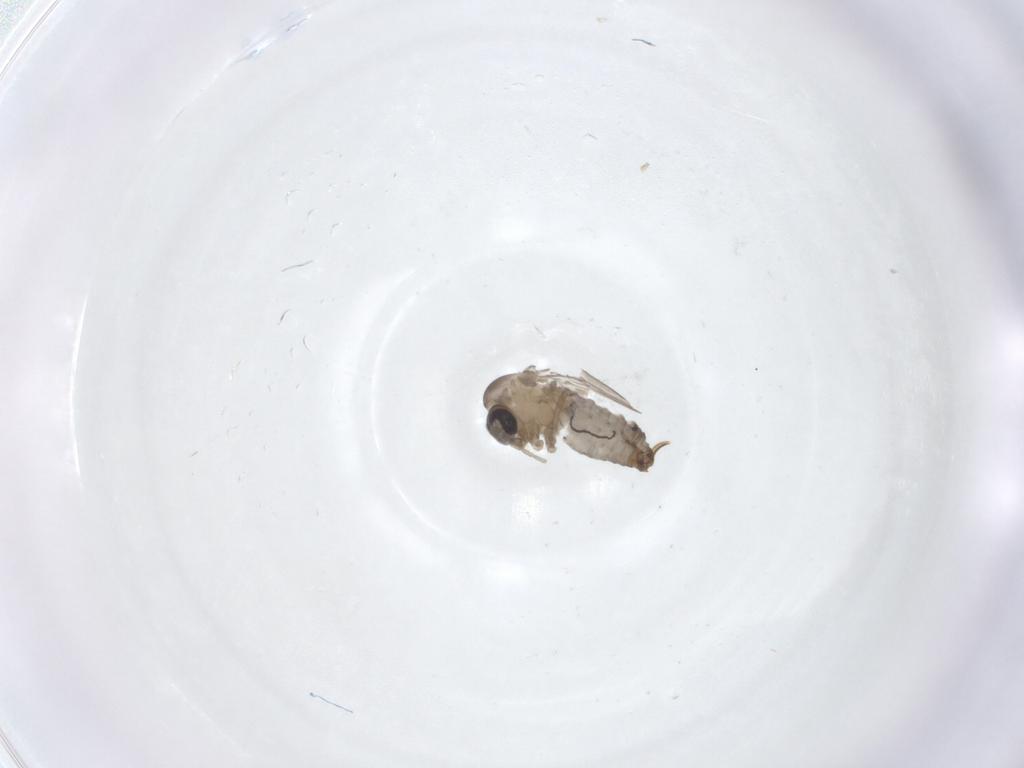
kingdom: Animalia
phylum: Arthropoda
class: Insecta
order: Diptera
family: Psychodidae
